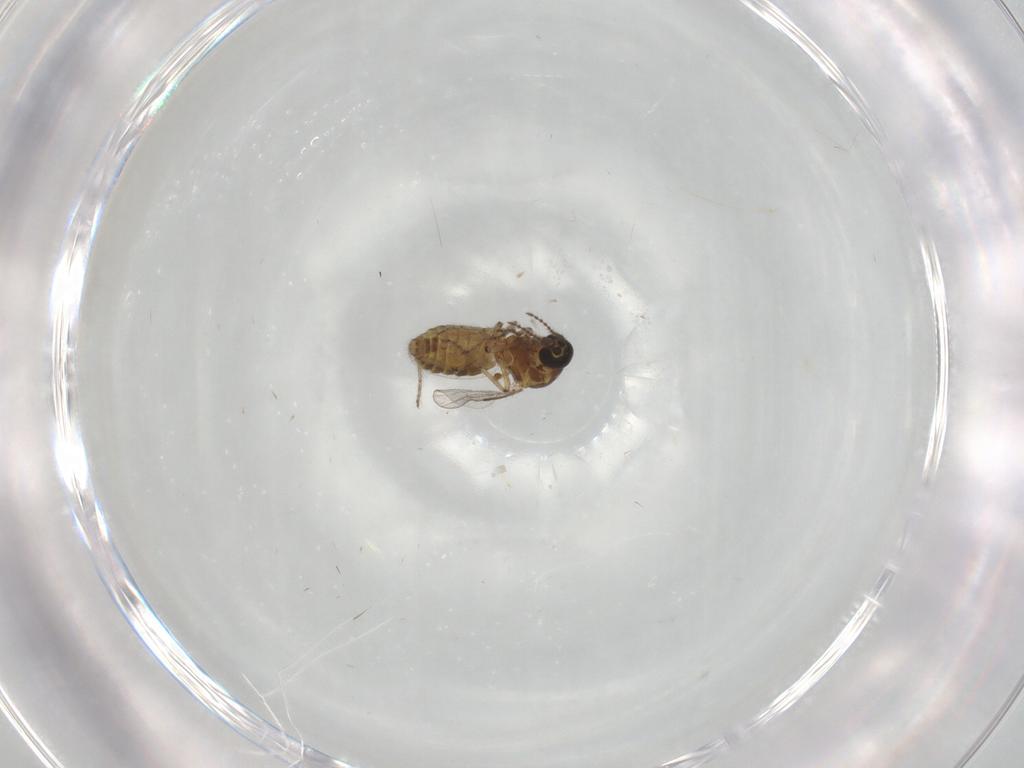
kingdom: Animalia
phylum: Arthropoda
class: Insecta
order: Diptera
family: Ceratopogonidae
